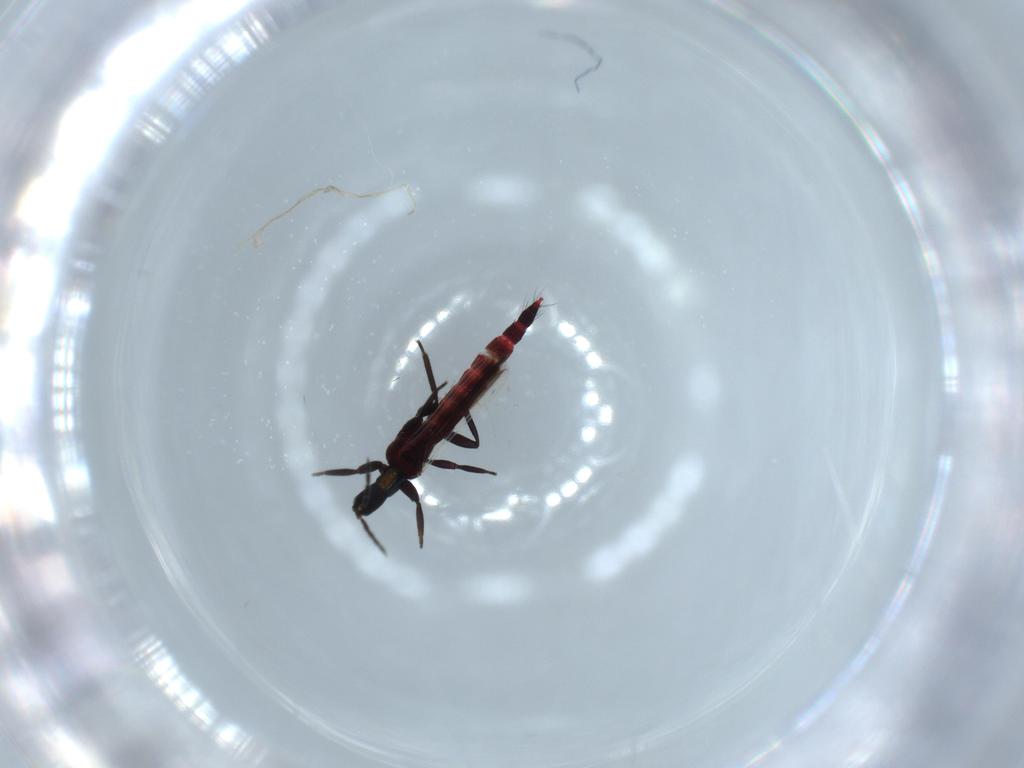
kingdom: Animalia
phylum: Arthropoda
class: Insecta
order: Thysanoptera
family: Aeolothripidae
